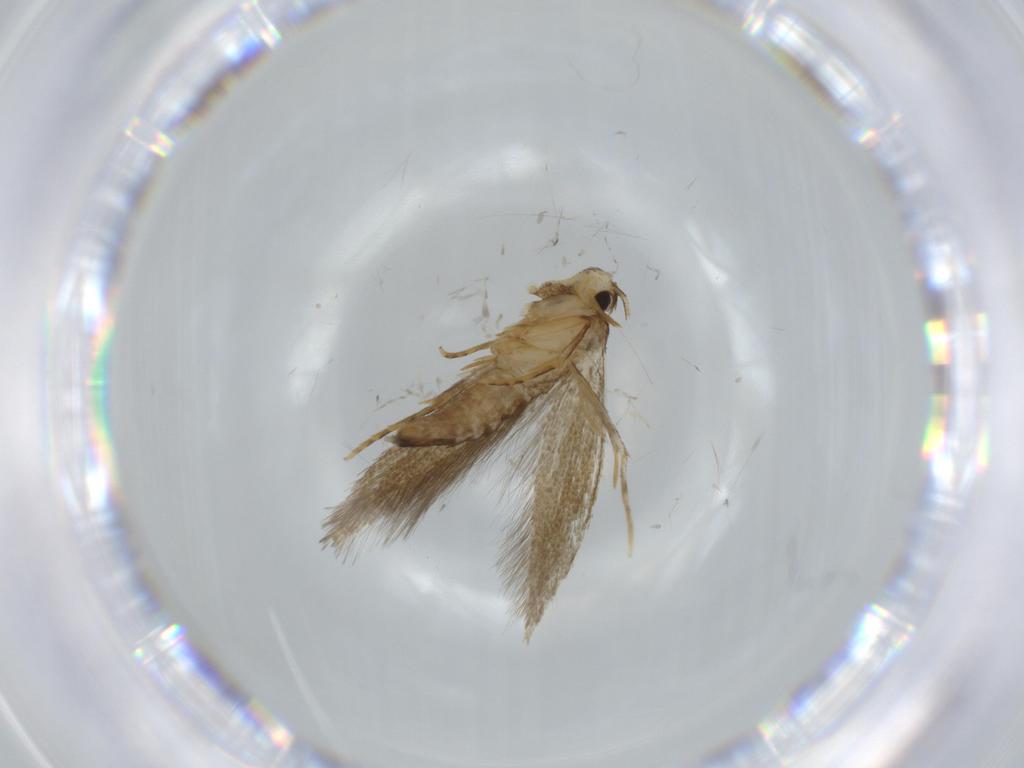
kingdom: Animalia
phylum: Arthropoda
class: Insecta
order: Lepidoptera
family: Tineidae
